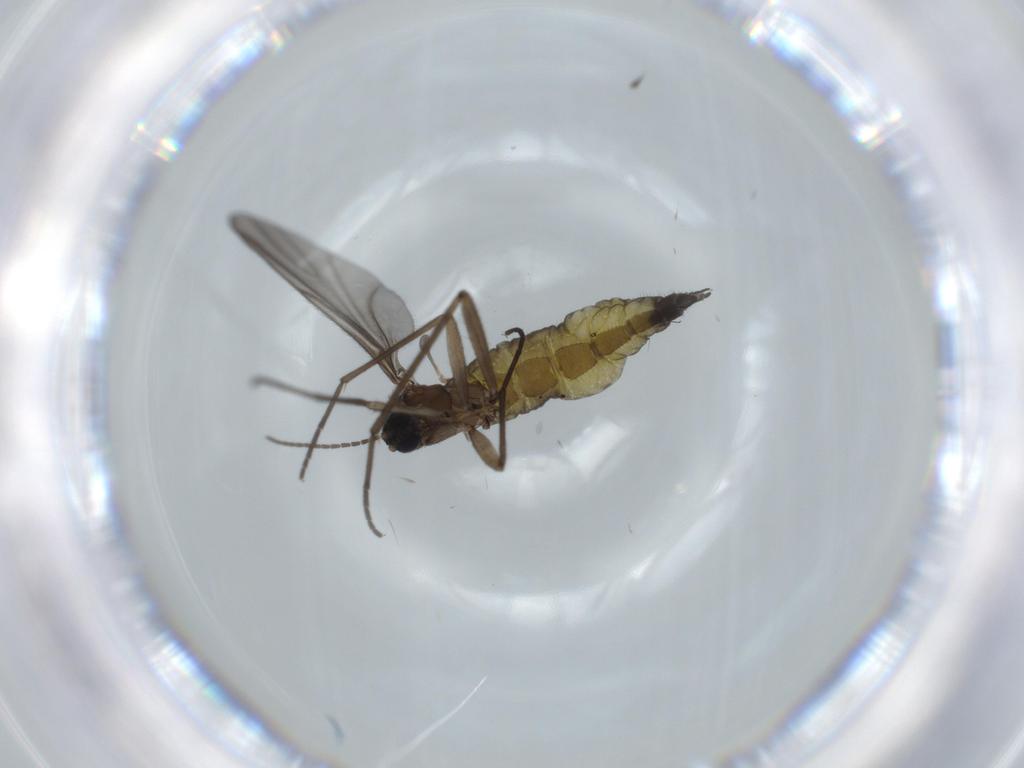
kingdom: Animalia
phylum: Arthropoda
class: Insecta
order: Diptera
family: Sciaridae
